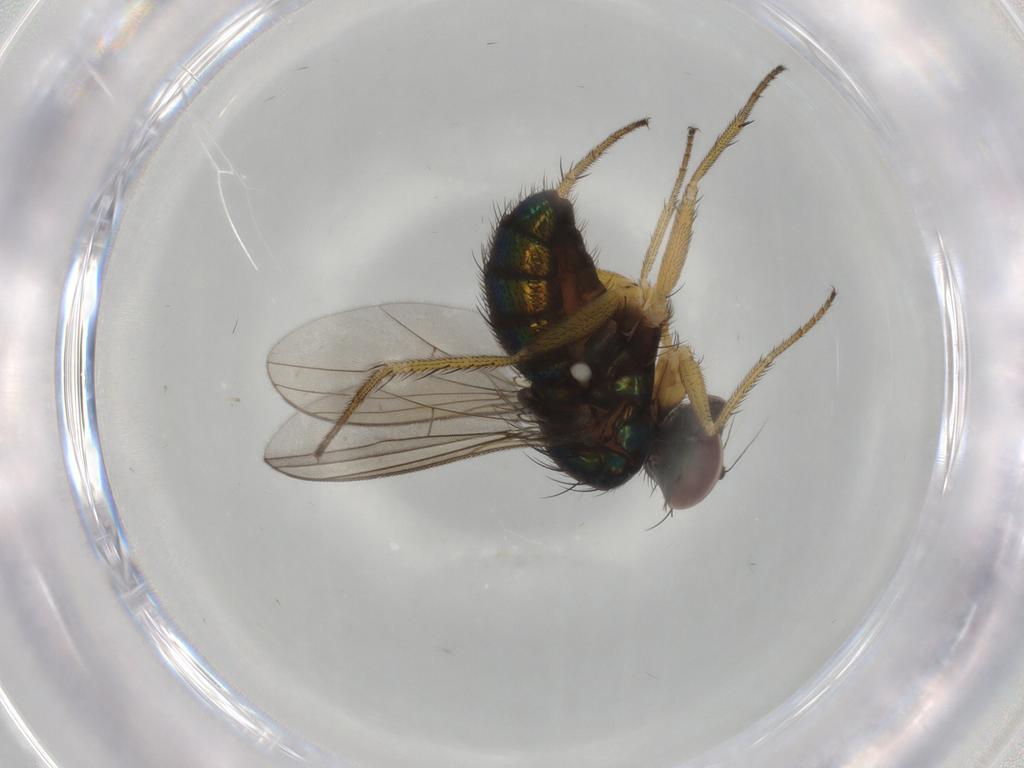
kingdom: Animalia
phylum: Arthropoda
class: Insecta
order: Diptera
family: Dolichopodidae
